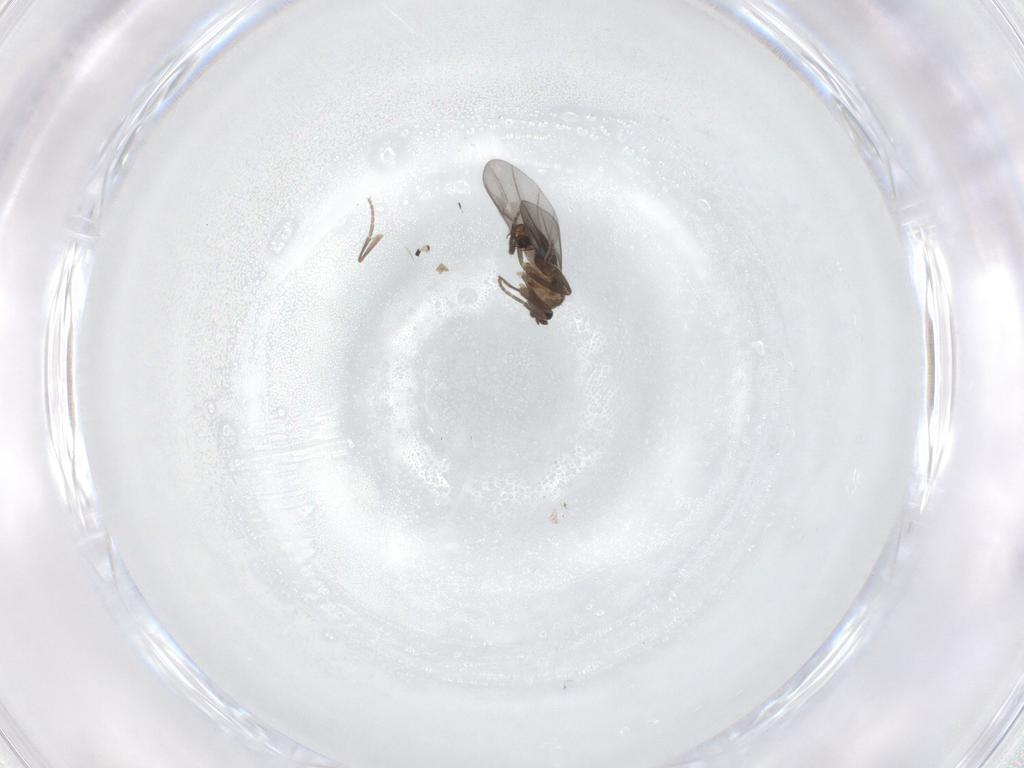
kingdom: Animalia
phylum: Arthropoda
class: Insecta
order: Diptera
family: Phoridae
